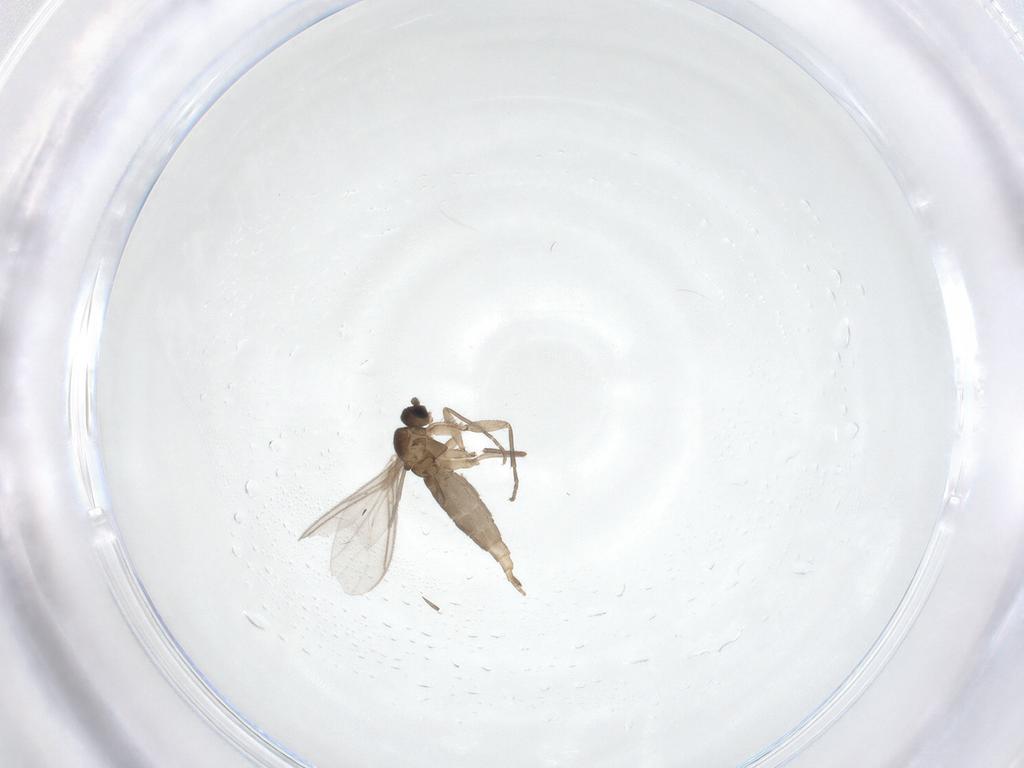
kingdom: Animalia
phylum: Arthropoda
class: Insecta
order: Diptera
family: Sciaridae
